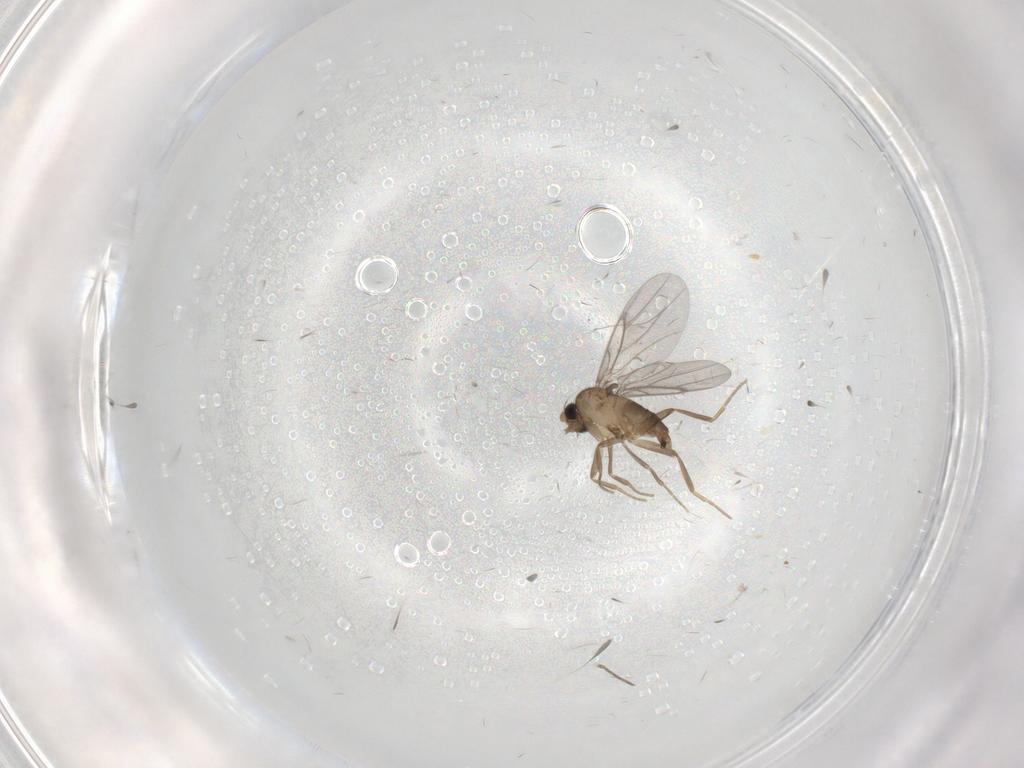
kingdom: Animalia
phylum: Arthropoda
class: Insecta
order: Diptera
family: Psychodidae
